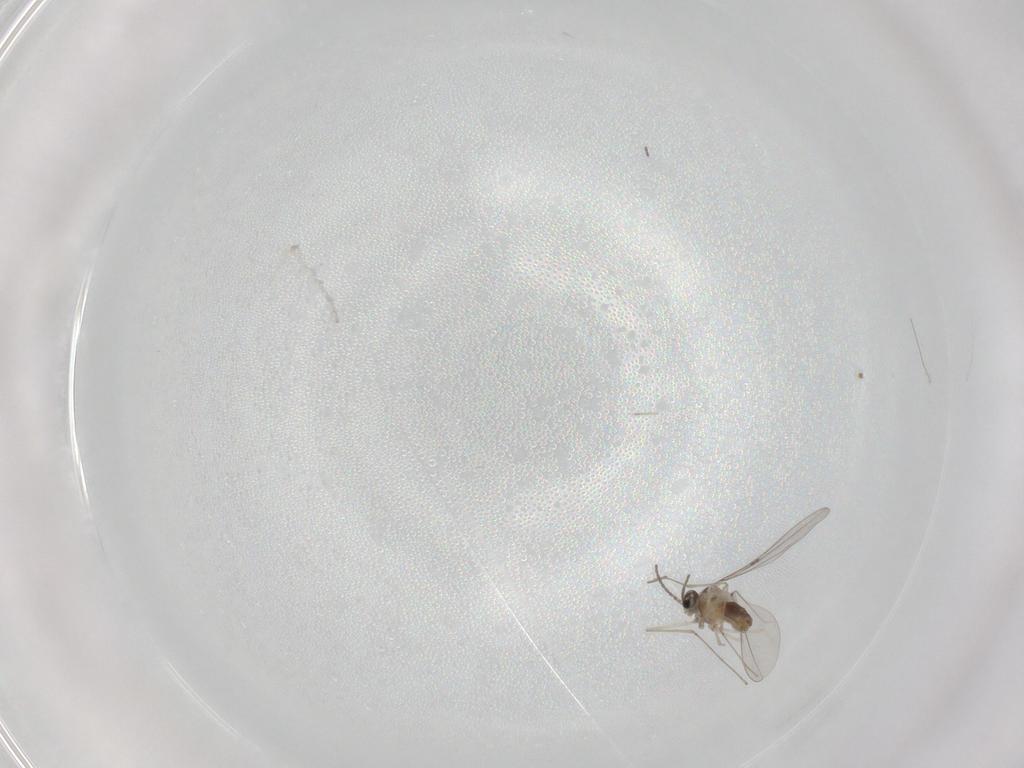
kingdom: Animalia
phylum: Arthropoda
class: Insecta
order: Diptera
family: Cecidomyiidae
